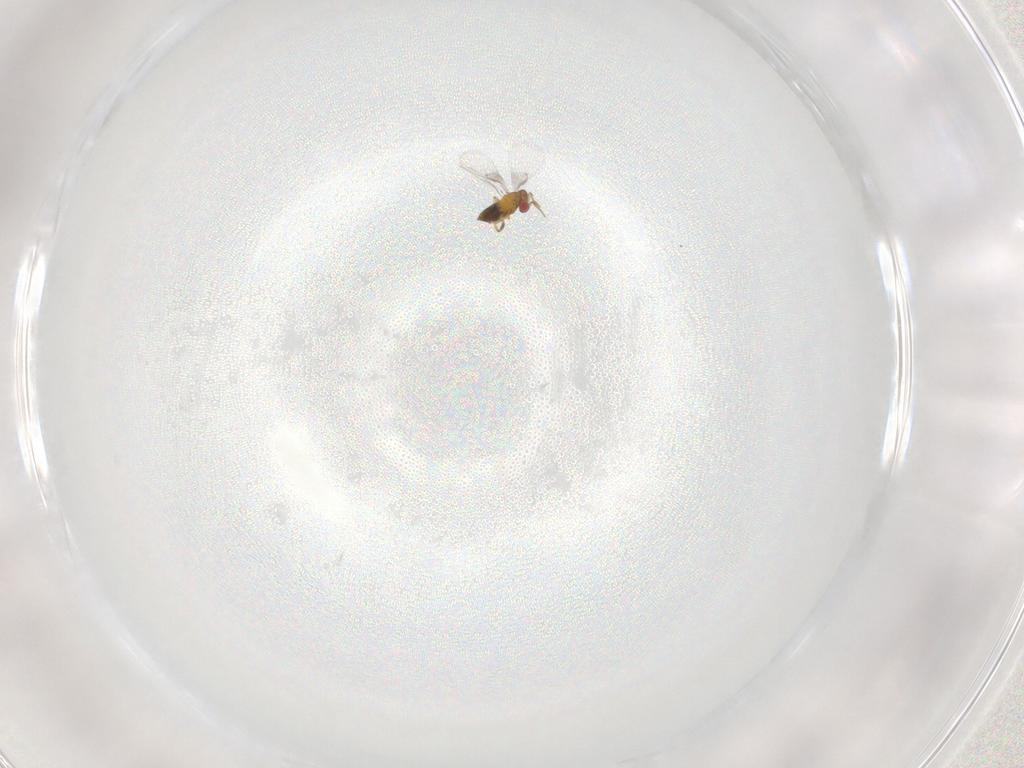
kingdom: Animalia
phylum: Arthropoda
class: Insecta
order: Hymenoptera
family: Trichogrammatidae
